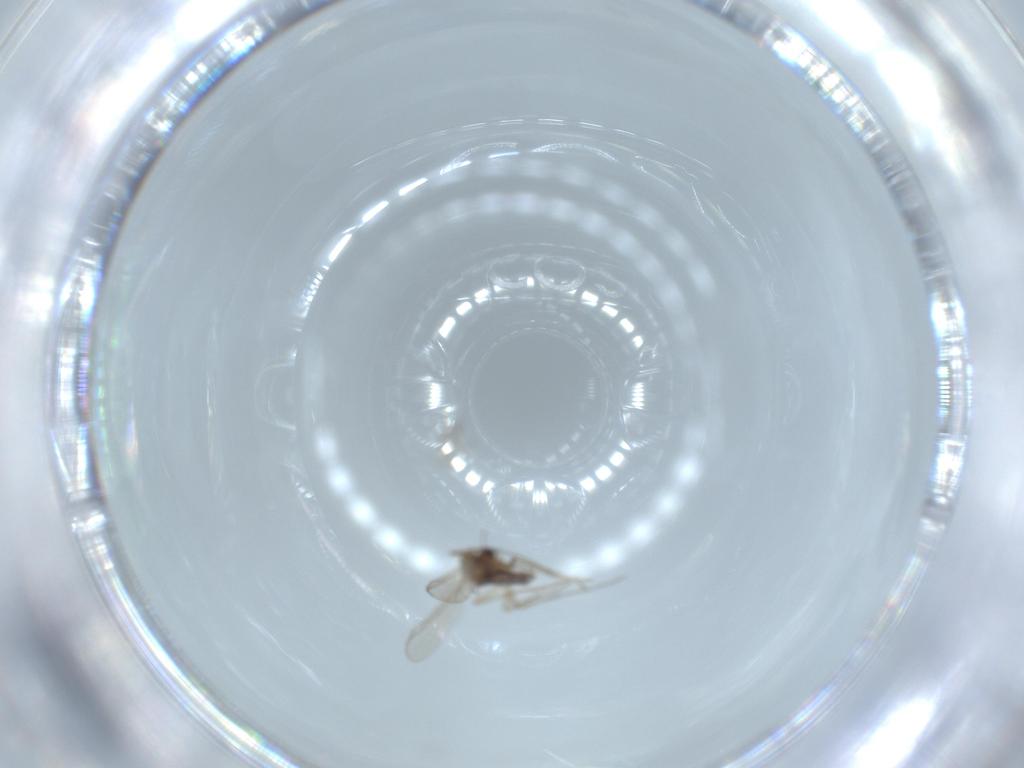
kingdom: Animalia
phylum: Arthropoda
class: Insecta
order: Diptera
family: Chironomidae
